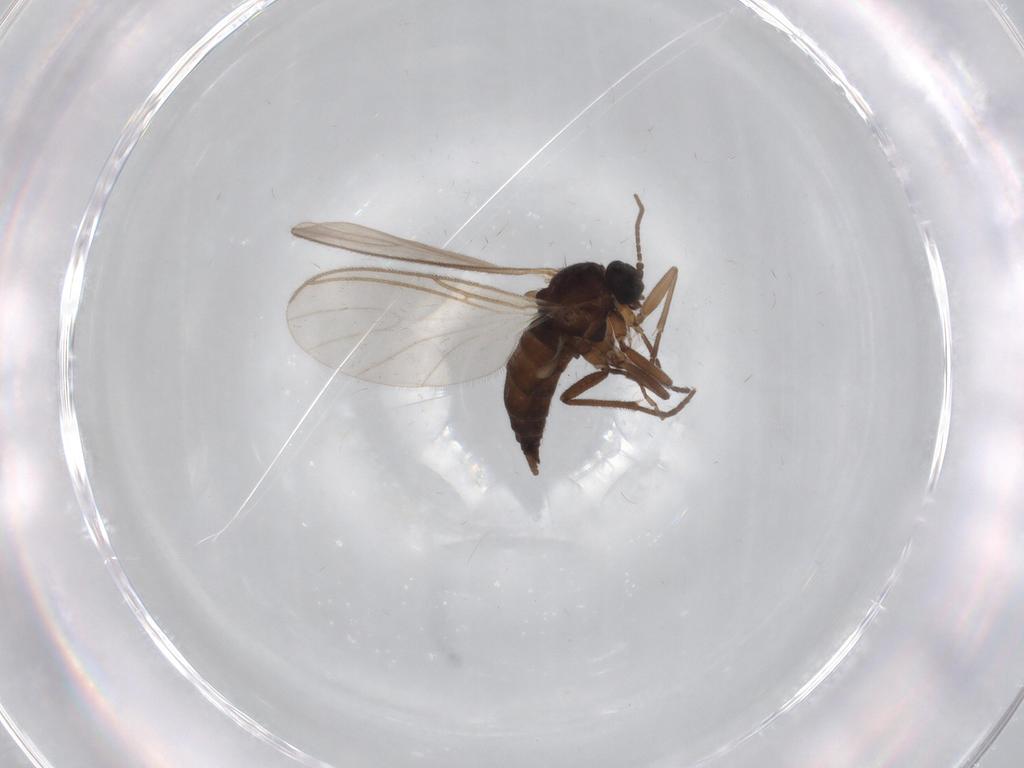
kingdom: Animalia
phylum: Arthropoda
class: Insecta
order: Diptera
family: Sciaridae
